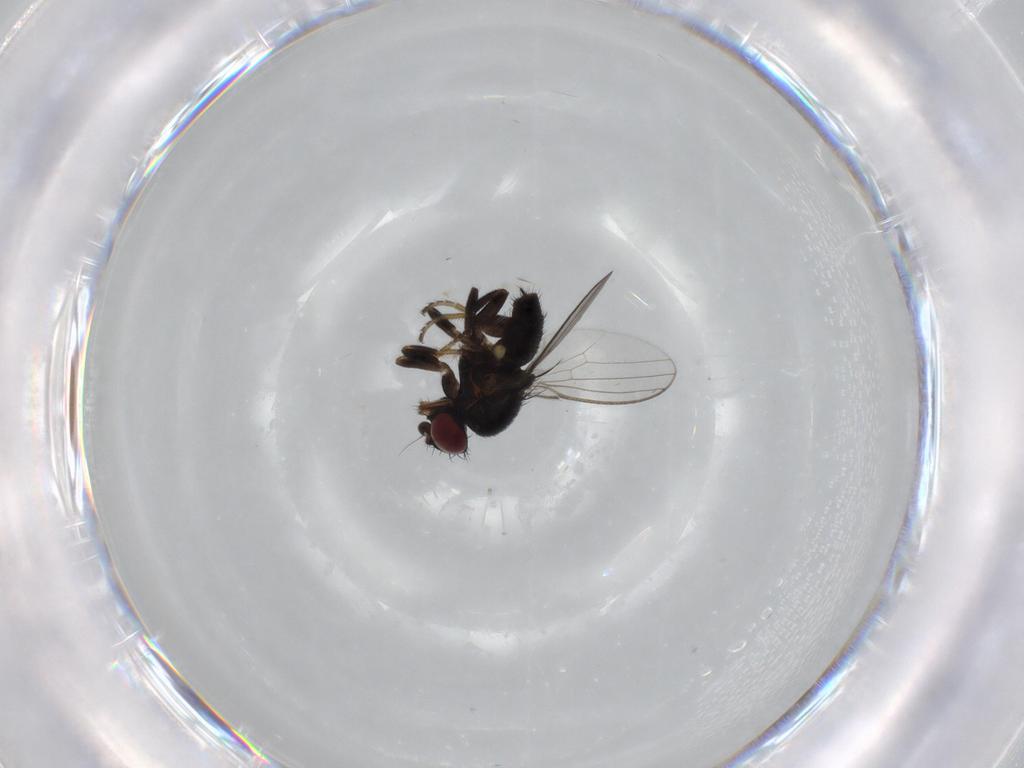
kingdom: Animalia
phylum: Arthropoda
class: Insecta
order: Diptera
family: Milichiidae
